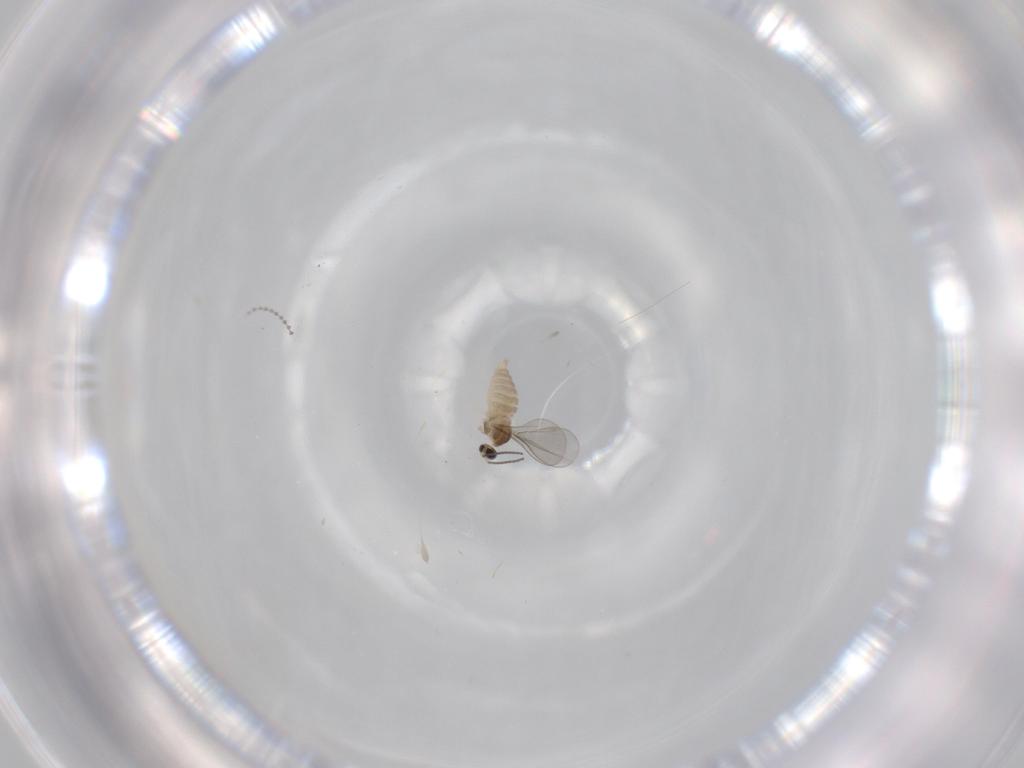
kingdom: Animalia
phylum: Arthropoda
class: Insecta
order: Diptera
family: Cecidomyiidae
